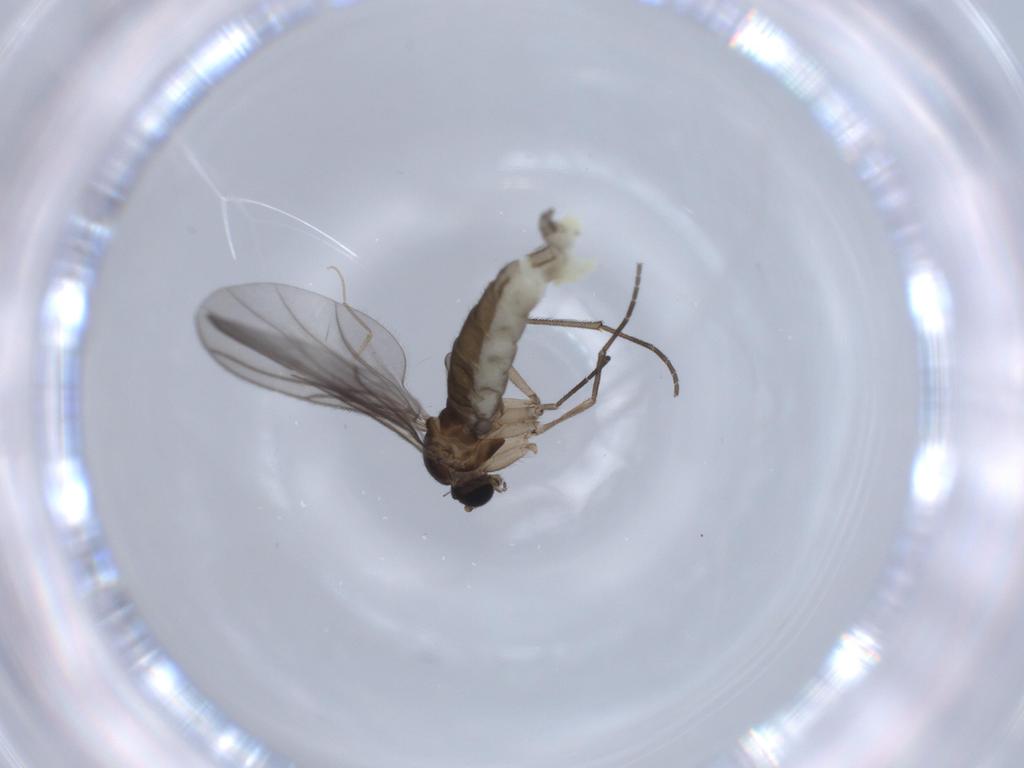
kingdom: Animalia
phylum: Arthropoda
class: Insecta
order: Diptera
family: Sciaridae
